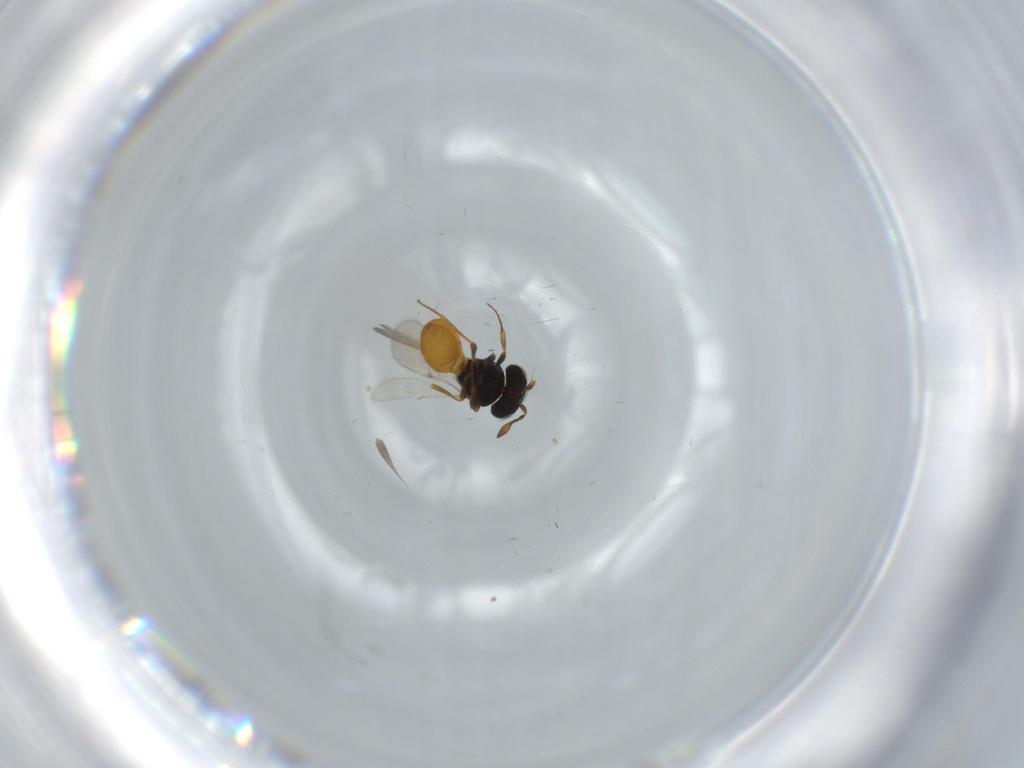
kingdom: Animalia
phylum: Arthropoda
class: Insecta
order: Hymenoptera
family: Scelionidae
